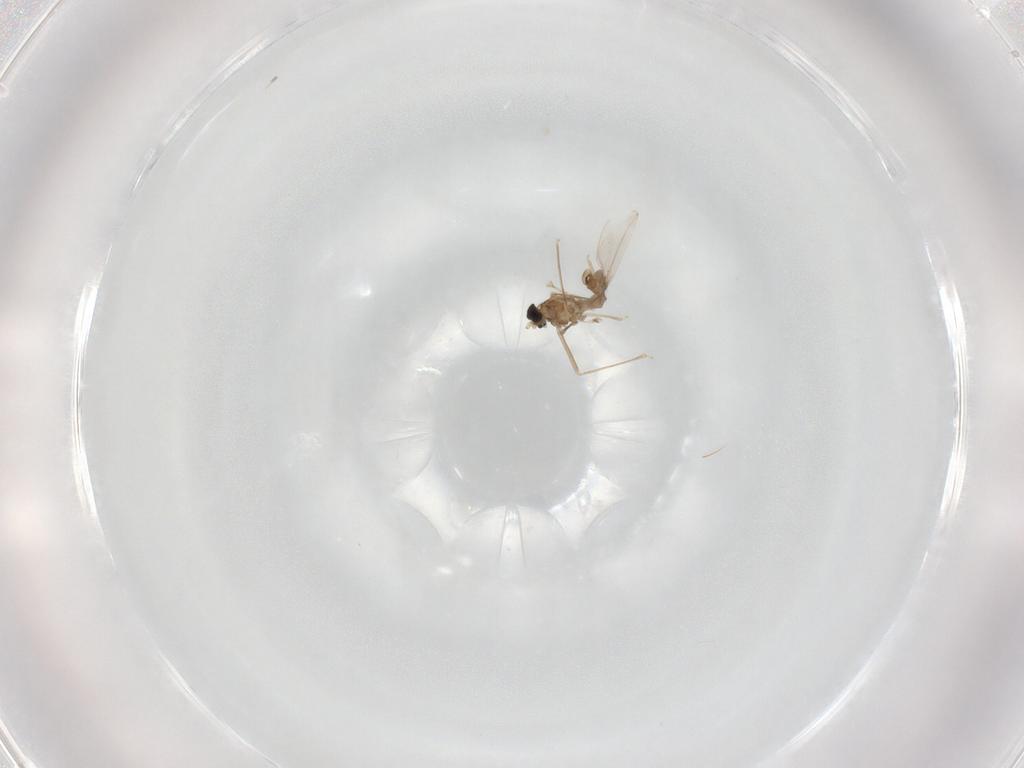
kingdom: Animalia
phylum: Arthropoda
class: Insecta
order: Diptera
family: Cecidomyiidae
